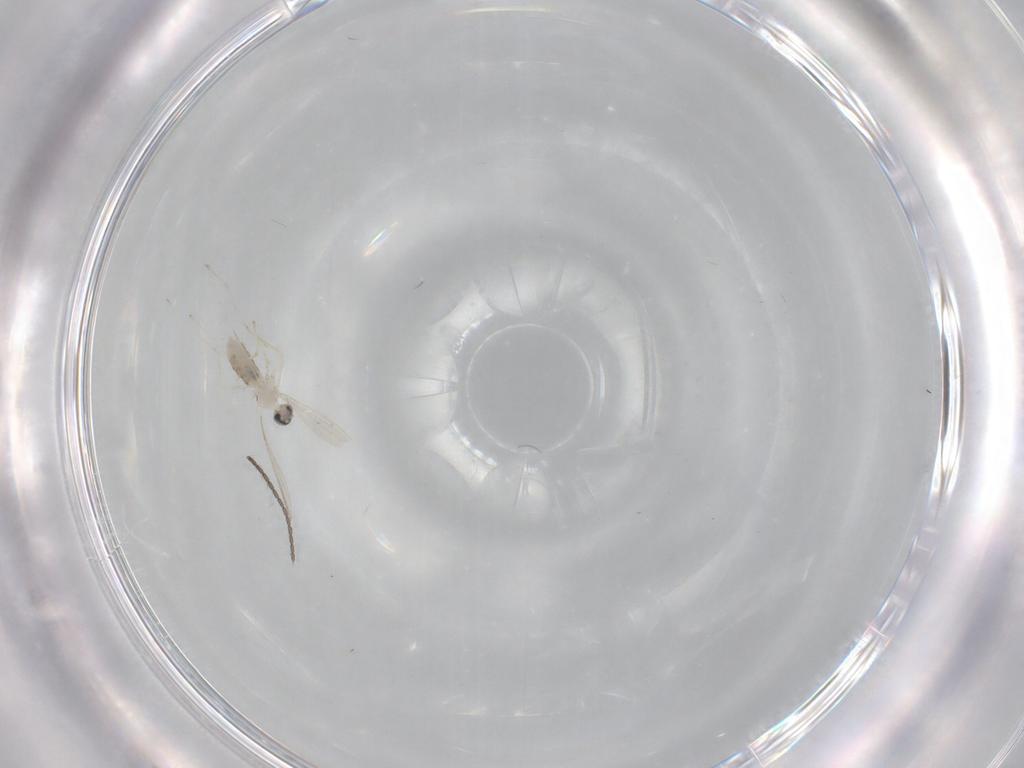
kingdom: Animalia
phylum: Arthropoda
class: Insecta
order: Diptera
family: Cecidomyiidae
